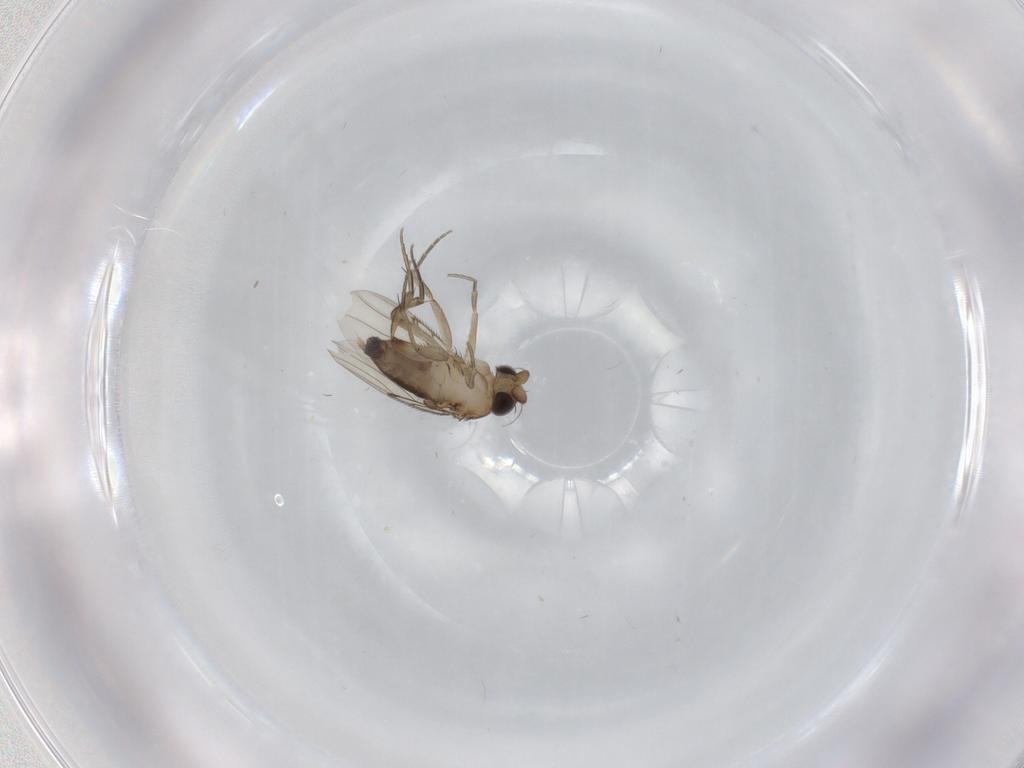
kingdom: Animalia
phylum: Arthropoda
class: Insecta
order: Diptera
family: Phoridae
